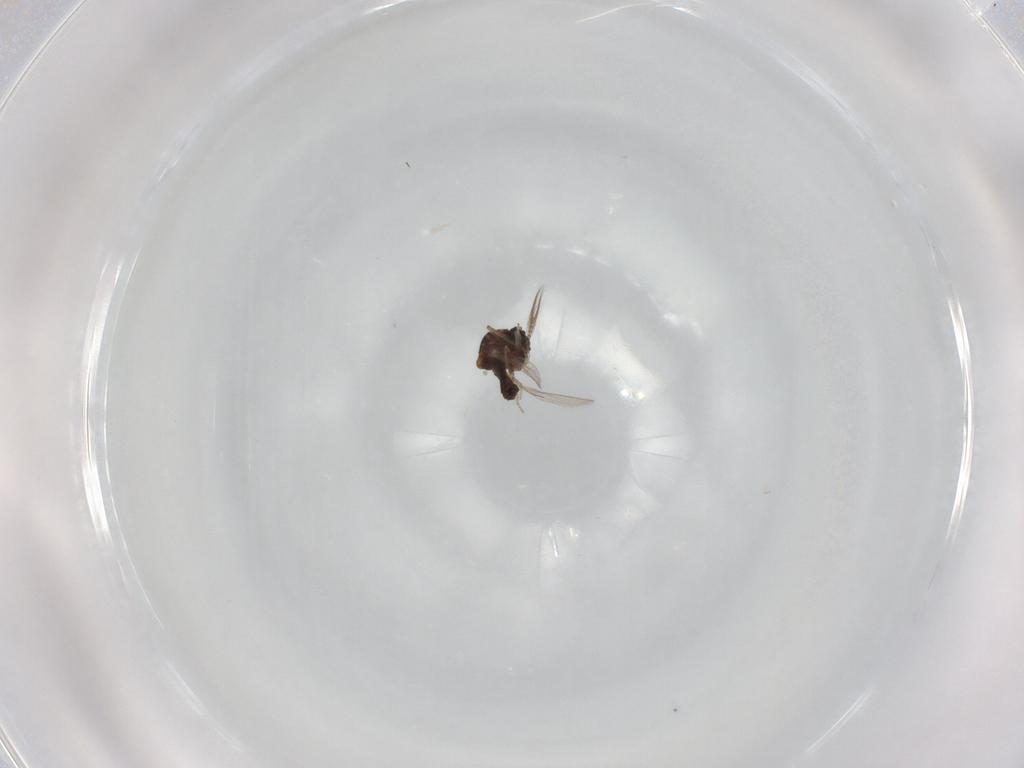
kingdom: Animalia
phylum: Arthropoda
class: Insecta
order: Diptera
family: Ceratopogonidae
